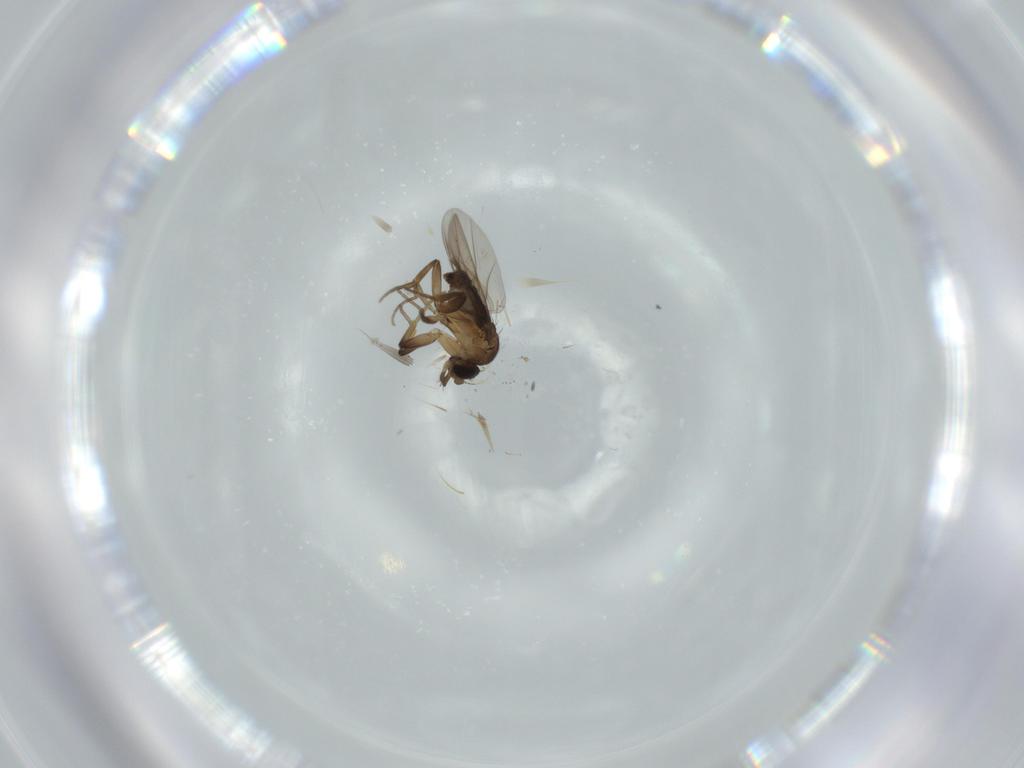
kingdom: Animalia
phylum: Arthropoda
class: Insecta
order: Diptera
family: Phoridae
